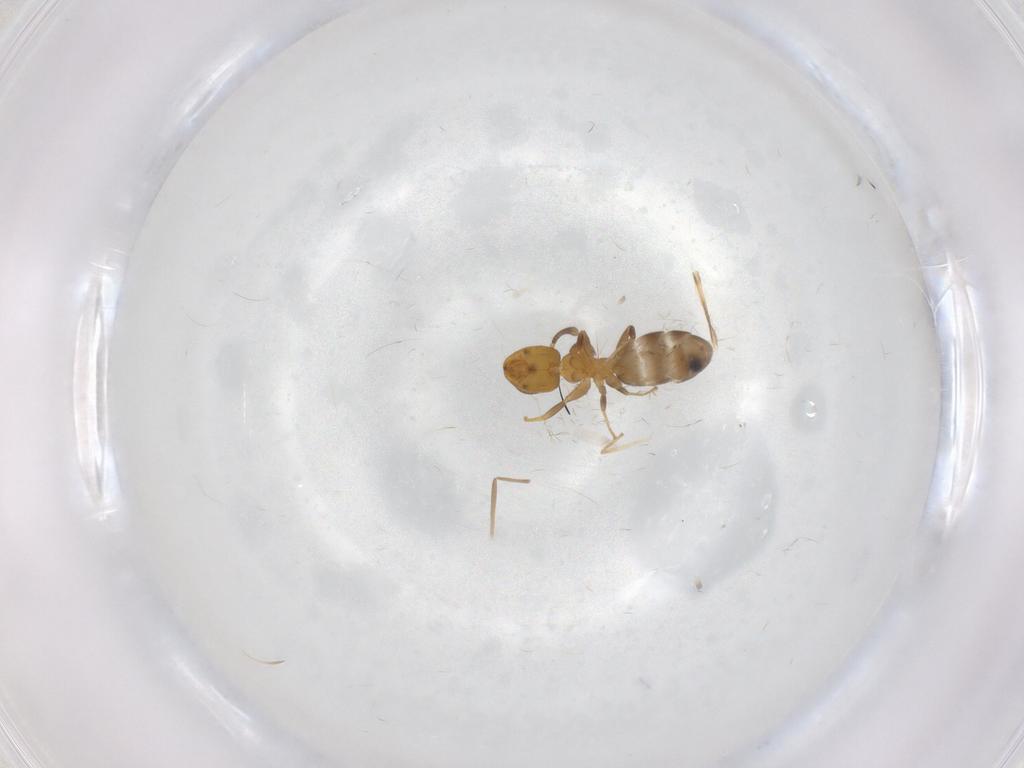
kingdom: Animalia
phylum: Arthropoda
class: Insecta
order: Hymenoptera
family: Formicidae
